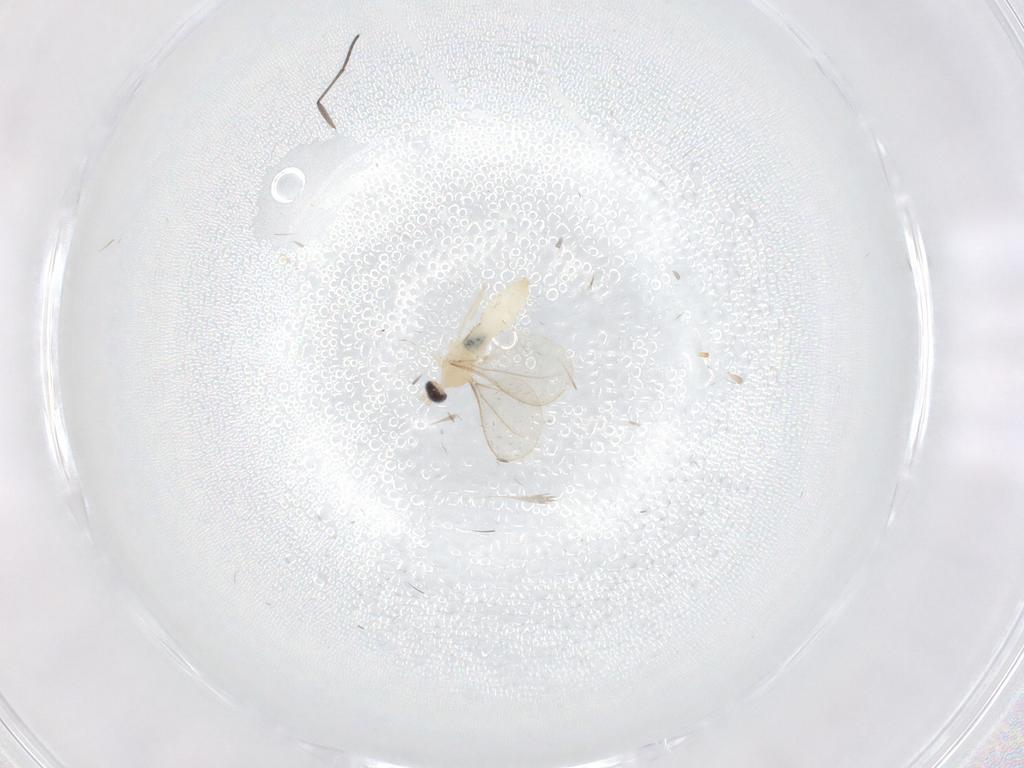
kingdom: Animalia
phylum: Arthropoda
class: Insecta
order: Diptera
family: Cecidomyiidae
